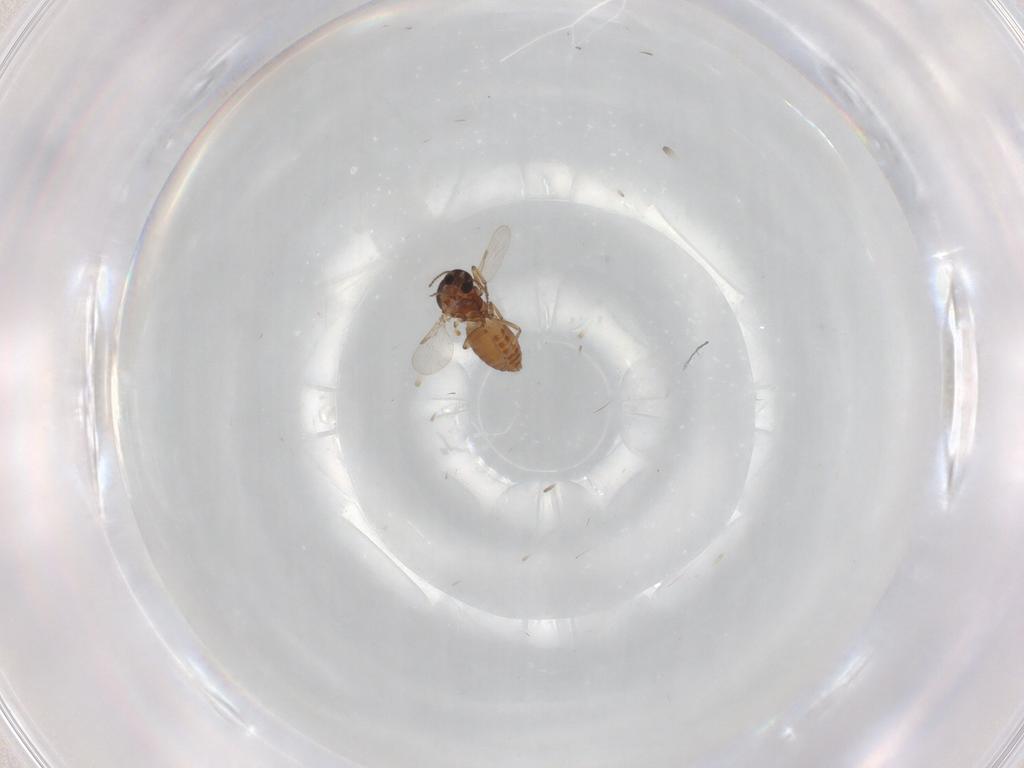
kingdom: Animalia
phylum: Arthropoda
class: Insecta
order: Diptera
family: Ceratopogonidae
